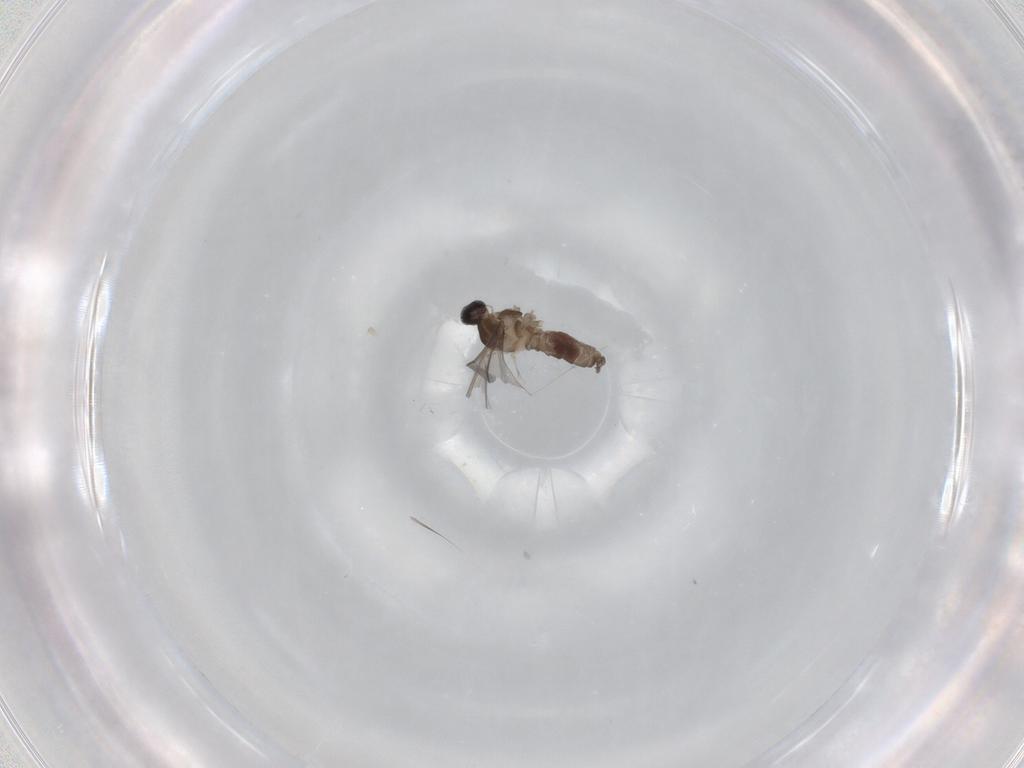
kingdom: Animalia
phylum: Arthropoda
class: Insecta
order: Diptera
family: Cecidomyiidae
